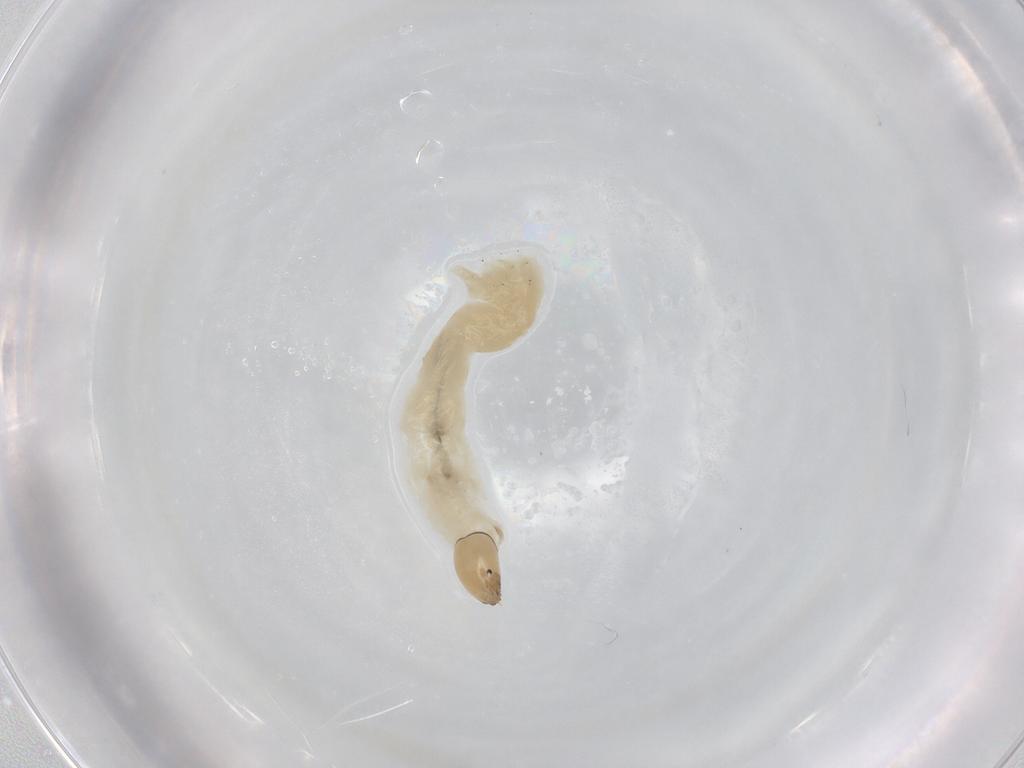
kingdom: Animalia
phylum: Arthropoda
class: Insecta
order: Diptera
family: Chironomidae
